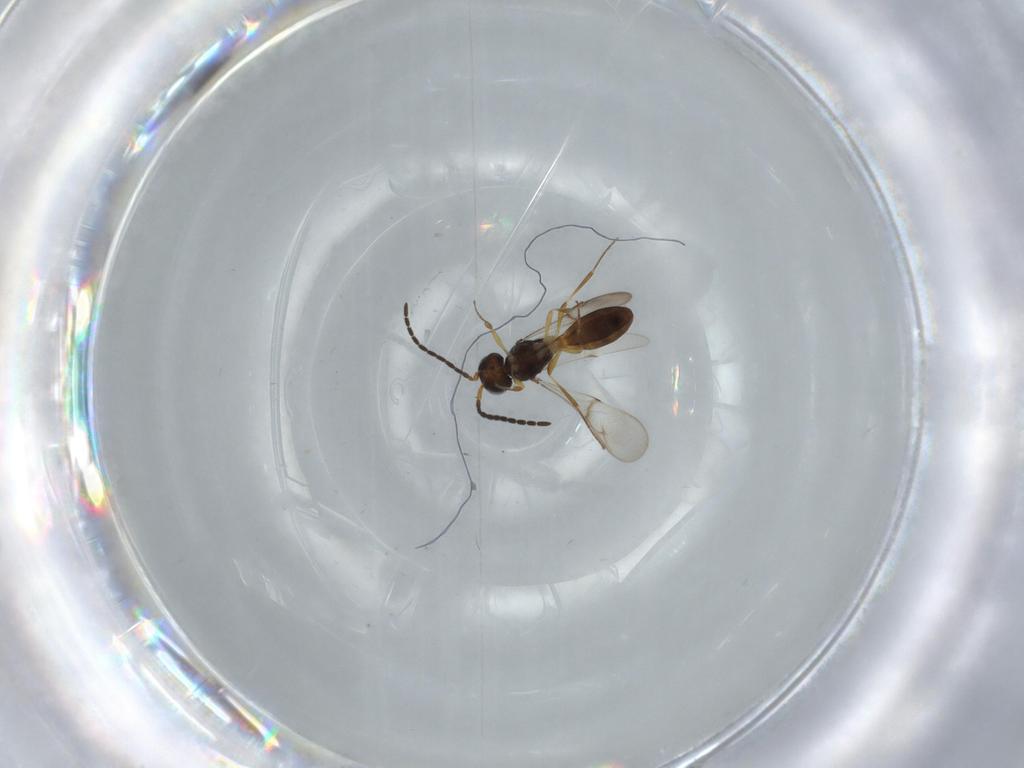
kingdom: Animalia
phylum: Arthropoda
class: Insecta
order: Hymenoptera
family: Scelionidae
